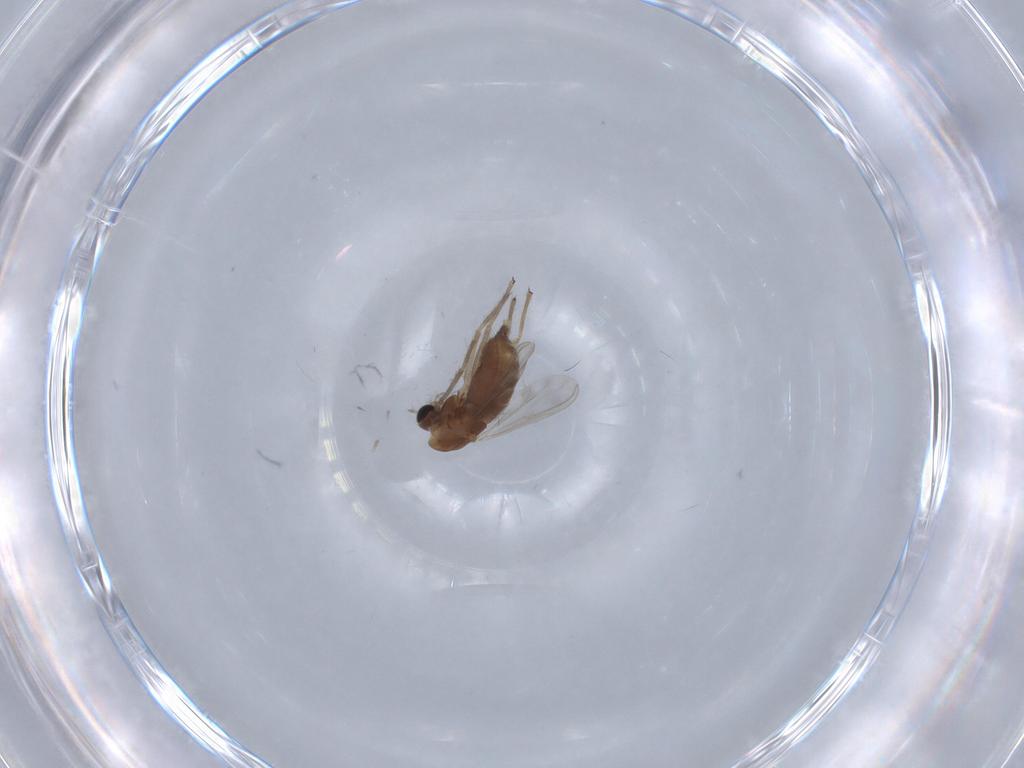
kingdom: Animalia
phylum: Arthropoda
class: Insecta
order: Diptera
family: Chironomidae
